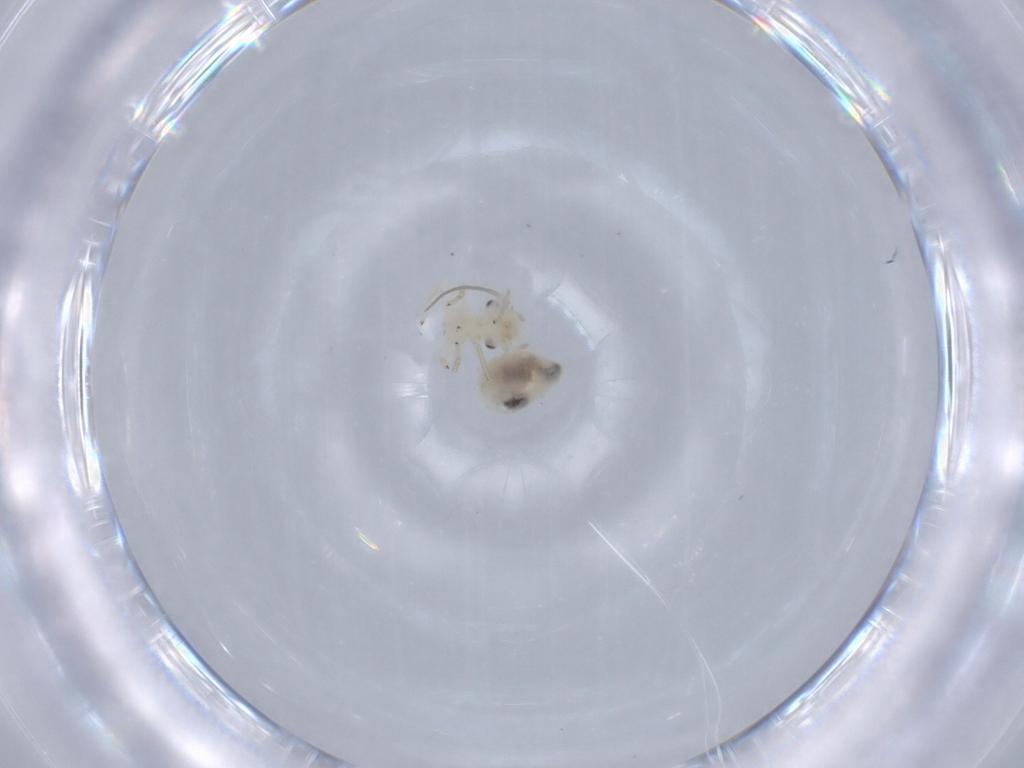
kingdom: Animalia
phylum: Arthropoda
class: Insecta
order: Psocodea
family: Caeciliusidae
